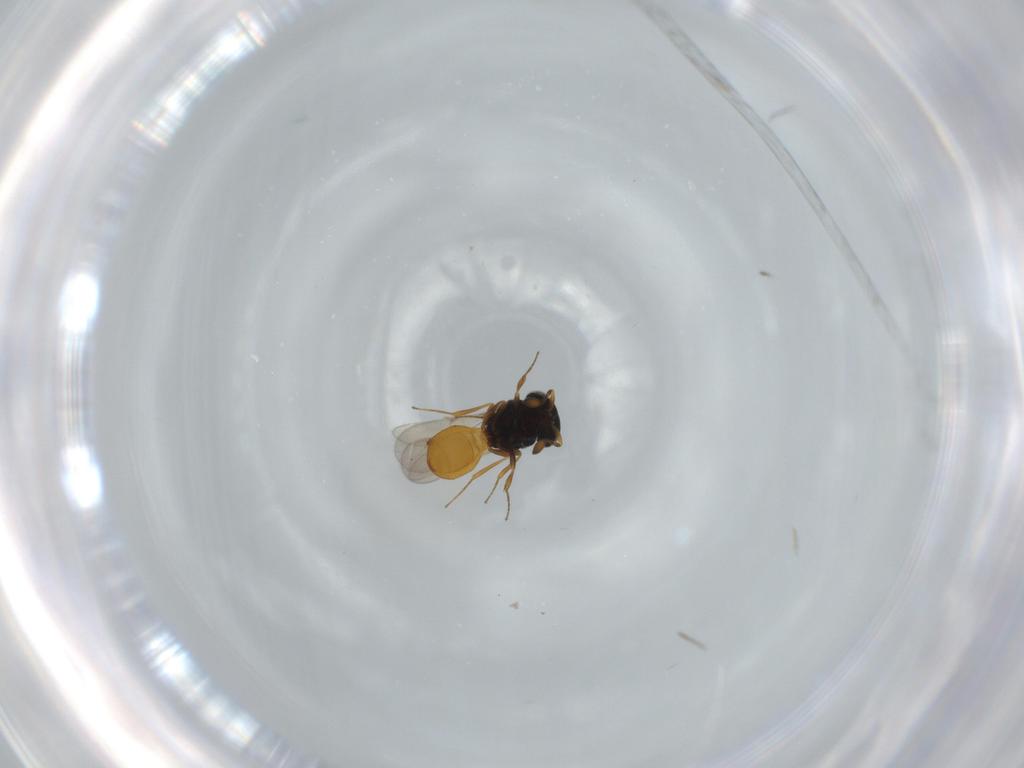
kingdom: Animalia
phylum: Arthropoda
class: Insecta
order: Hymenoptera
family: Scelionidae
